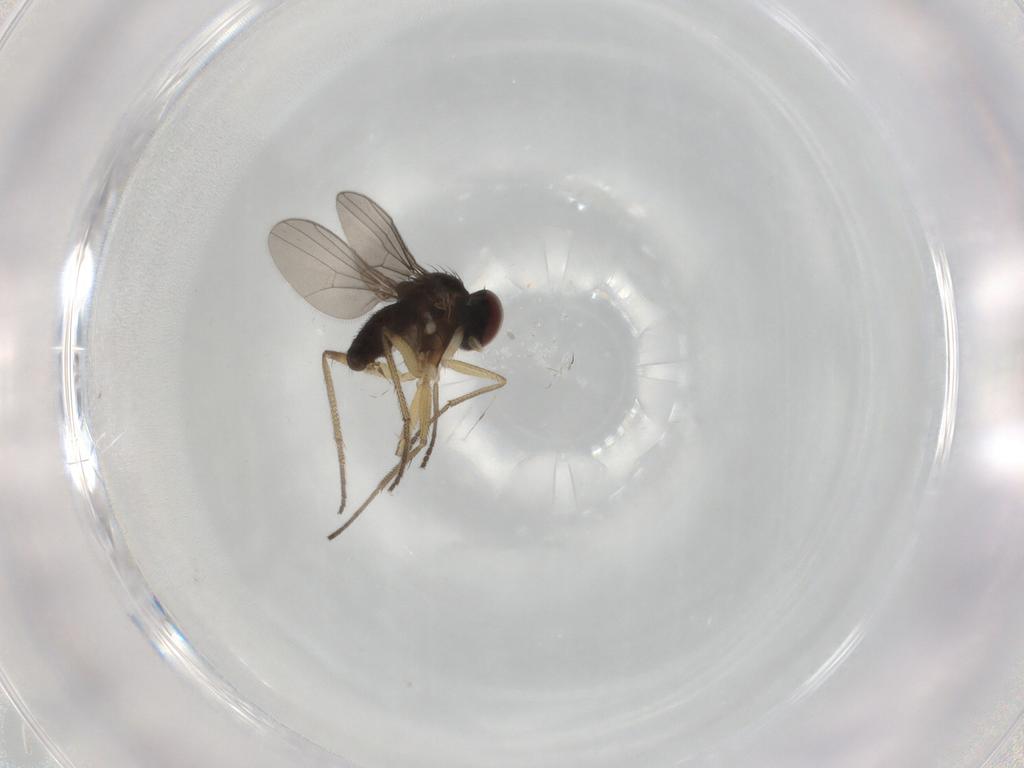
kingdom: Animalia
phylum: Arthropoda
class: Insecta
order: Diptera
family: Dolichopodidae
